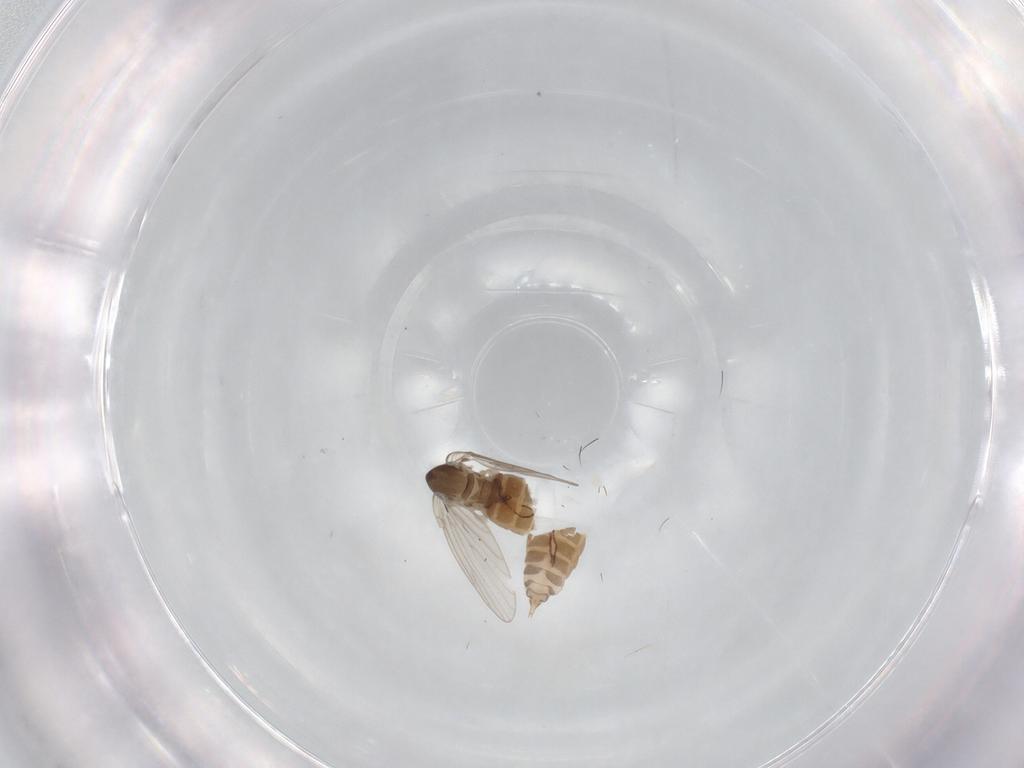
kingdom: Animalia
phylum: Arthropoda
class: Insecta
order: Diptera
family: Psychodidae
